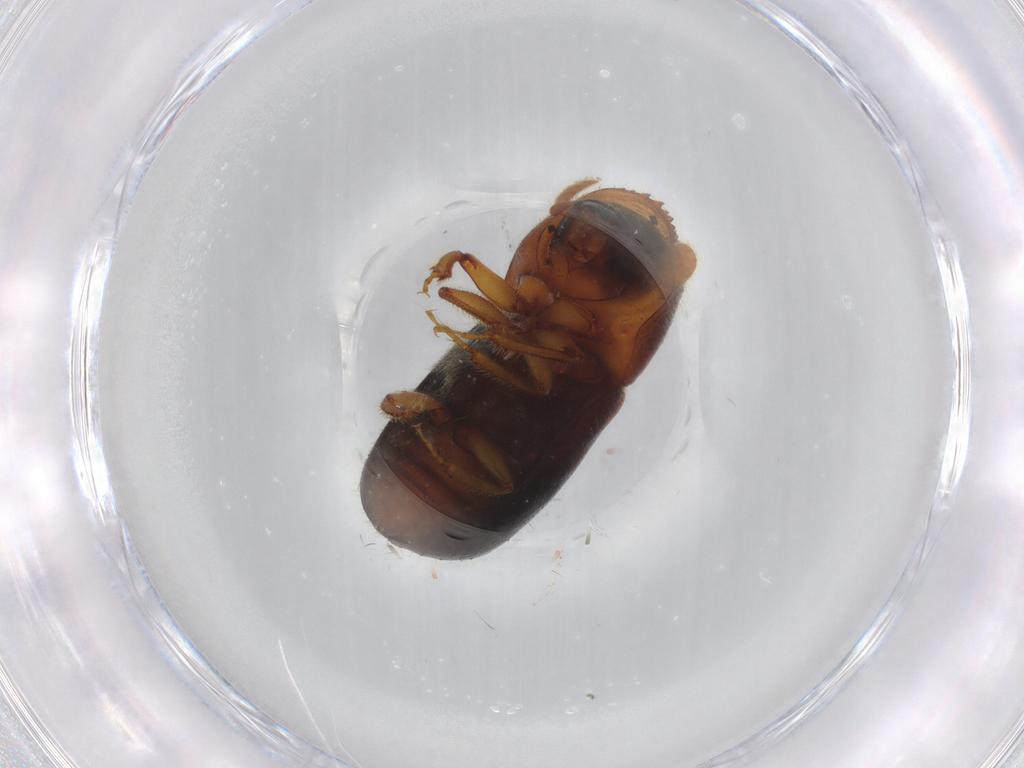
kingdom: Animalia
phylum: Arthropoda
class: Insecta
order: Coleoptera
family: Curculionidae
